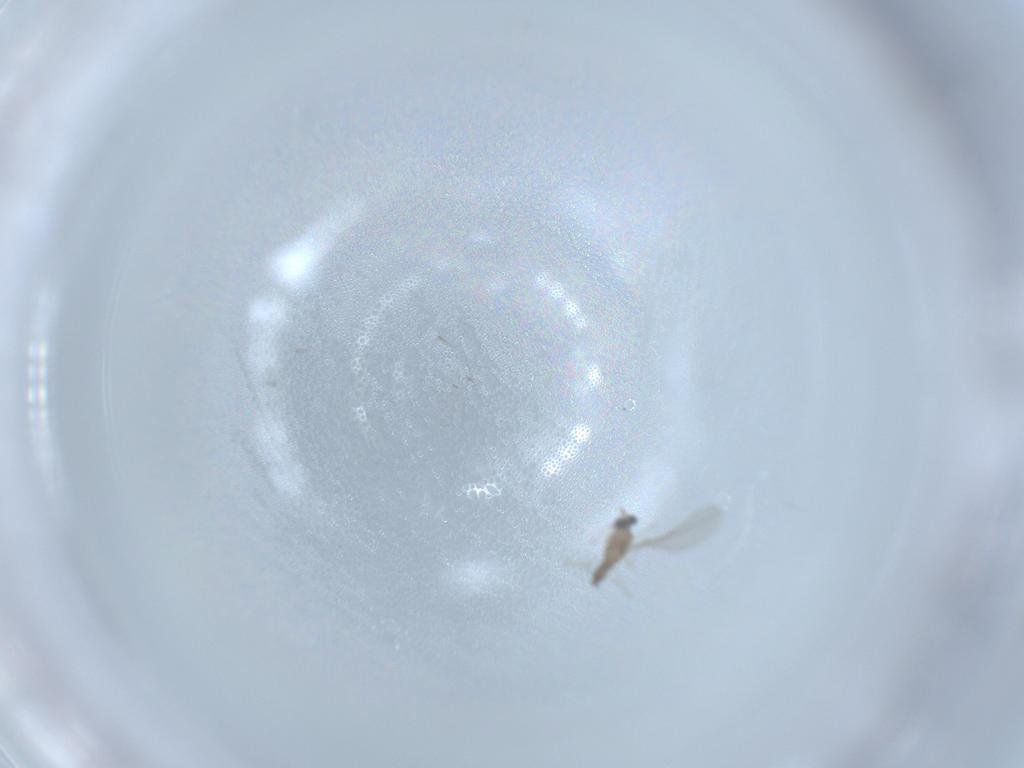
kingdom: Animalia
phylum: Arthropoda
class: Insecta
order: Diptera
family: Cecidomyiidae
